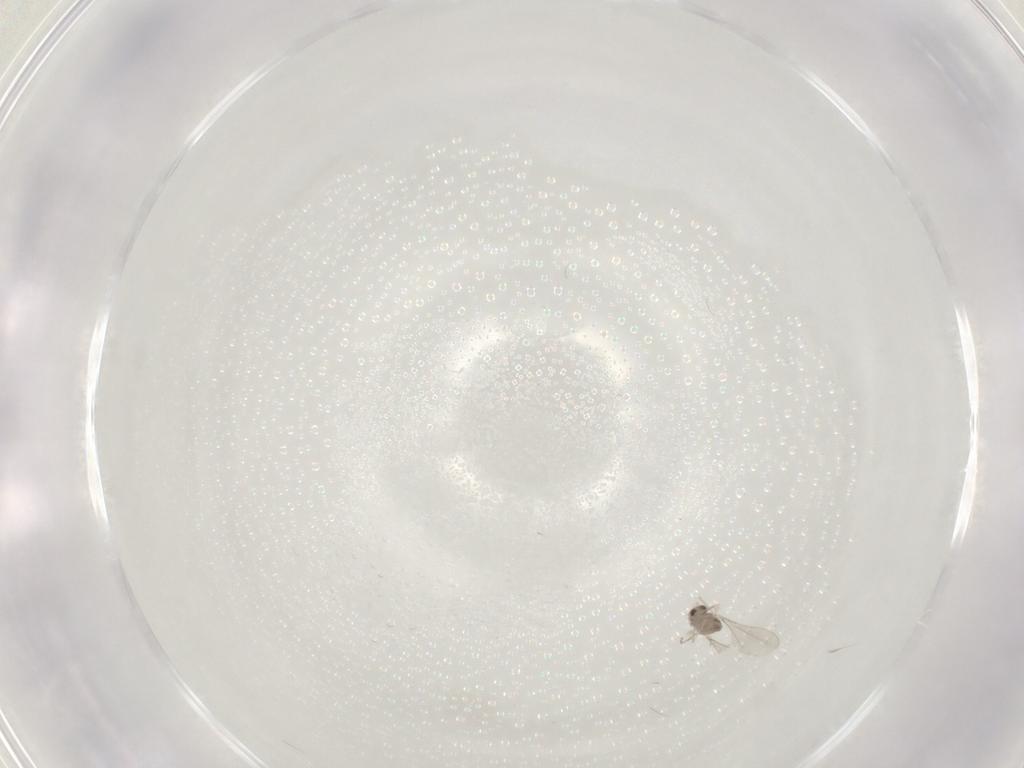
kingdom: Animalia
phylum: Arthropoda
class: Insecta
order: Diptera
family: Cecidomyiidae
